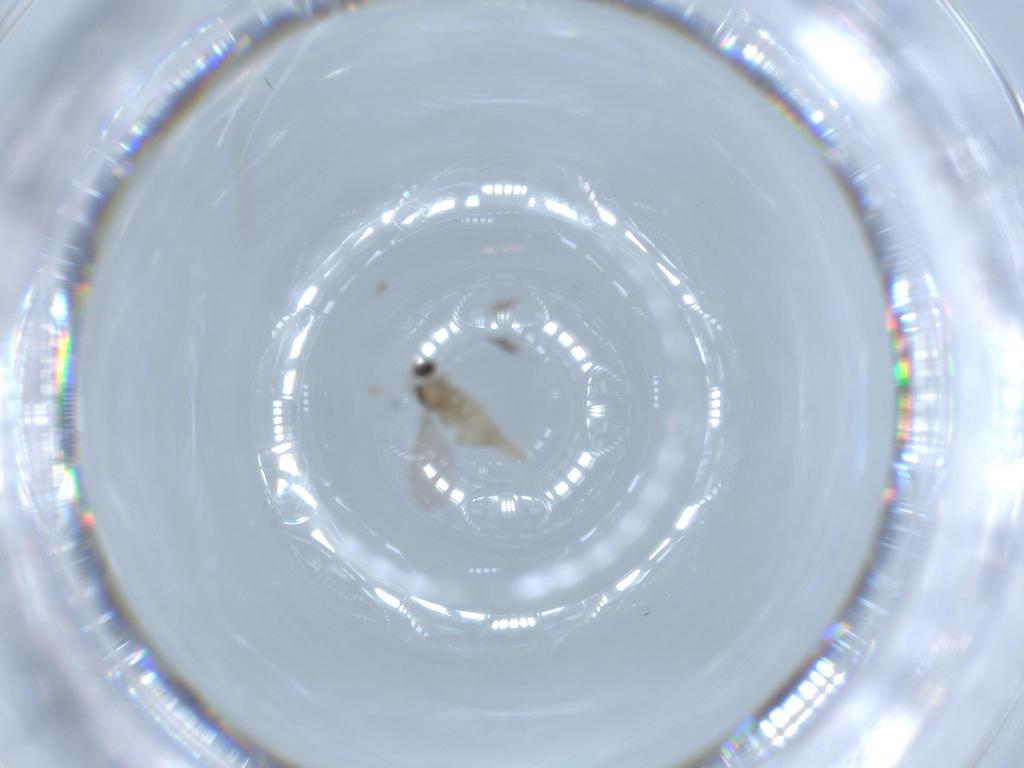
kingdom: Animalia
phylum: Arthropoda
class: Insecta
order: Diptera
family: Cecidomyiidae
